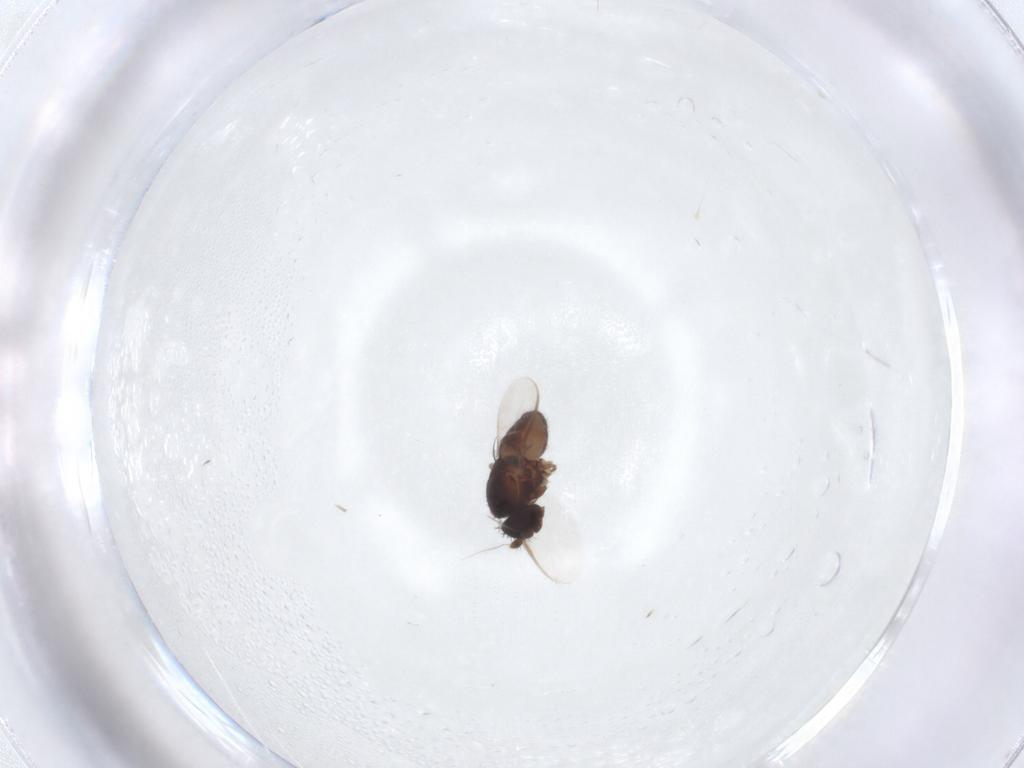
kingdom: Animalia
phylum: Arthropoda
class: Insecta
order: Diptera
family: Sphaeroceridae
